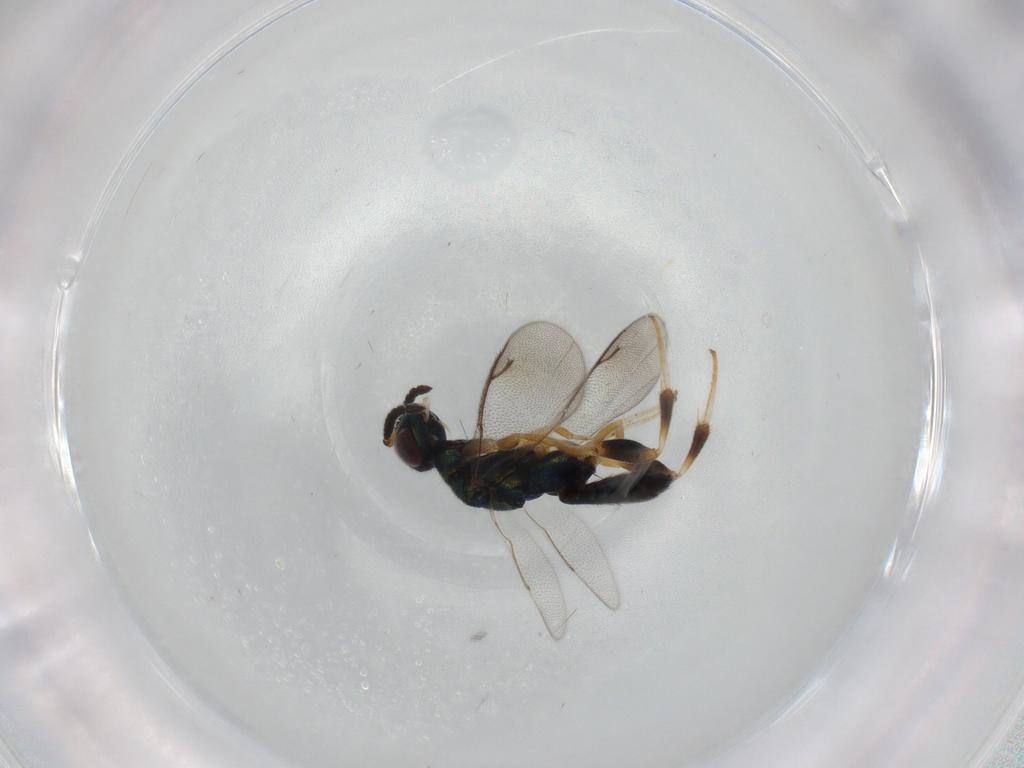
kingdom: Animalia
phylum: Arthropoda
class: Insecta
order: Hymenoptera
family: Cleonyminae
